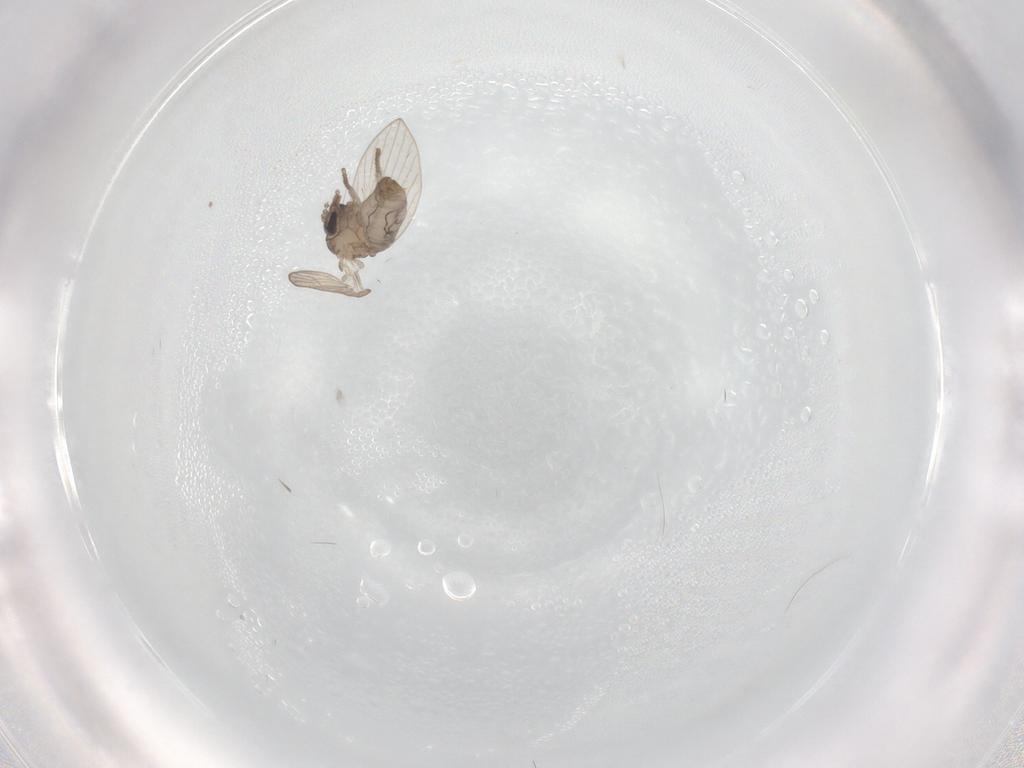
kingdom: Animalia
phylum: Arthropoda
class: Insecta
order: Diptera
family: Psychodidae
